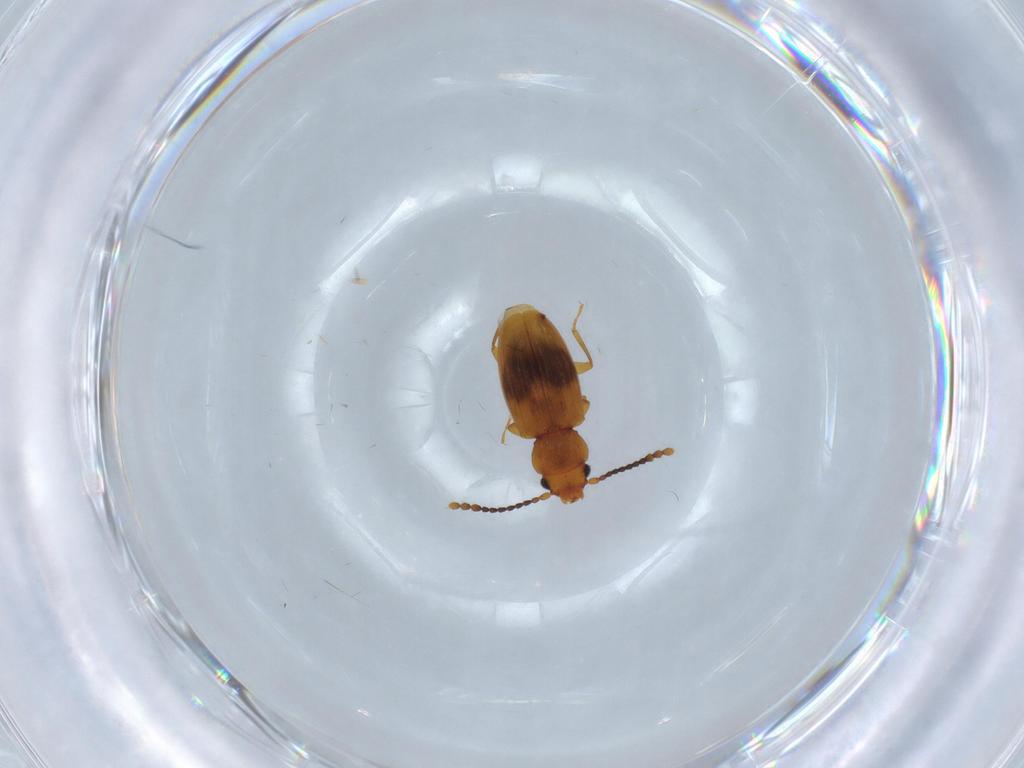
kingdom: Animalia
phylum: Arthropoda
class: Insecta
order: Coleoptera
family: Laemophloeidae
